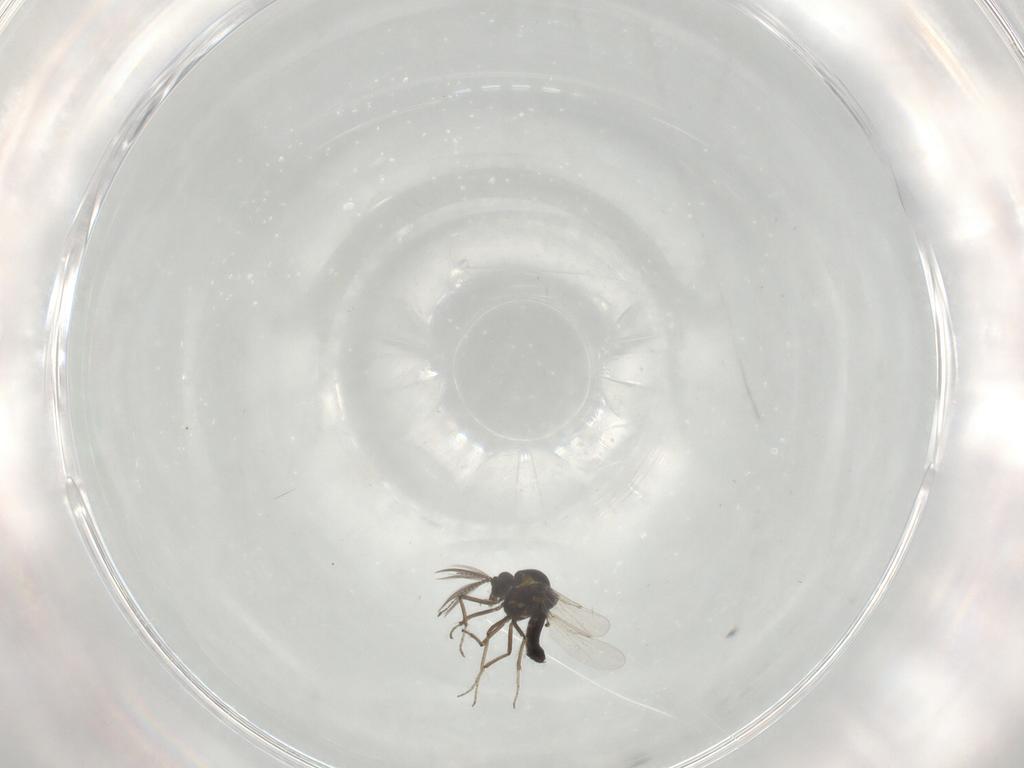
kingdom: Animalia
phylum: Arthropoda
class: Insecta
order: Diptera
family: Ceratopogonidae
